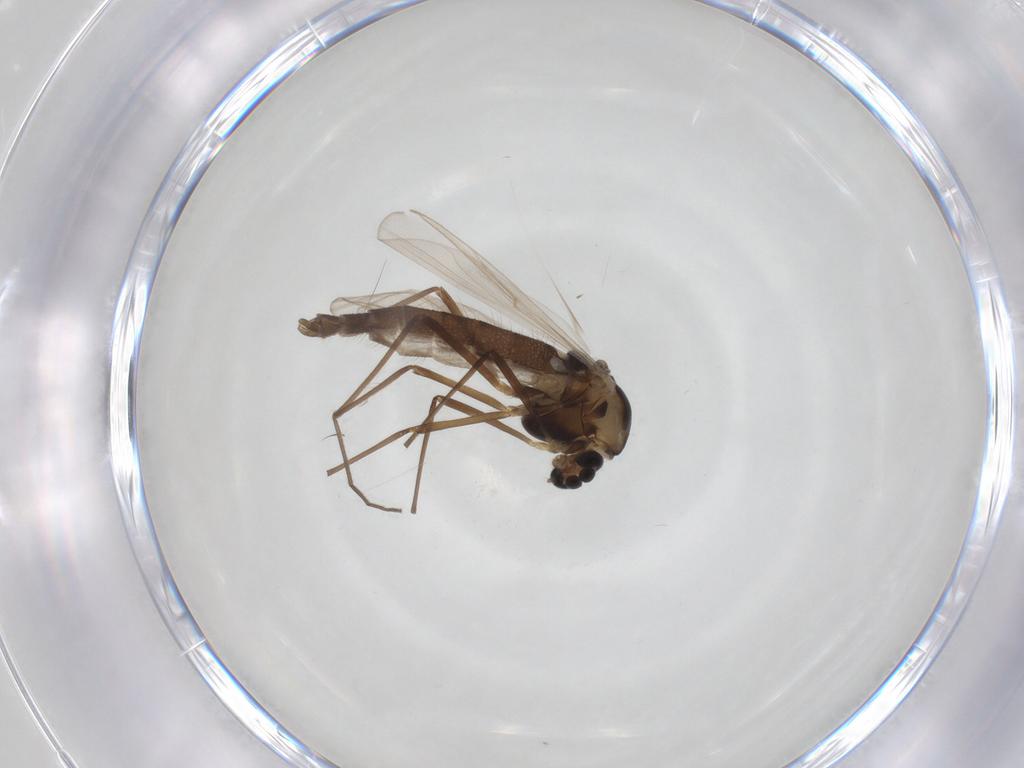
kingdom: Animalia
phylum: Arthropoda
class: Insecta
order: Diptera
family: Chironomidae
